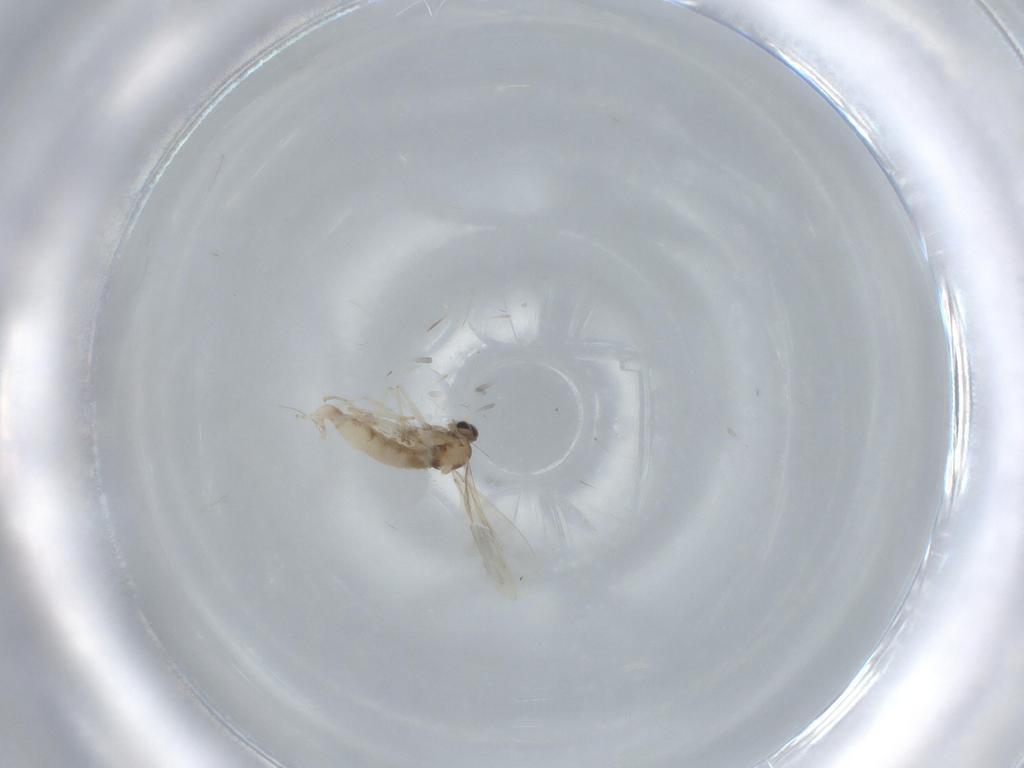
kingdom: Animalia
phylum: Arthropoda
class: Insecta
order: Diptera
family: Cecidomyiidae
